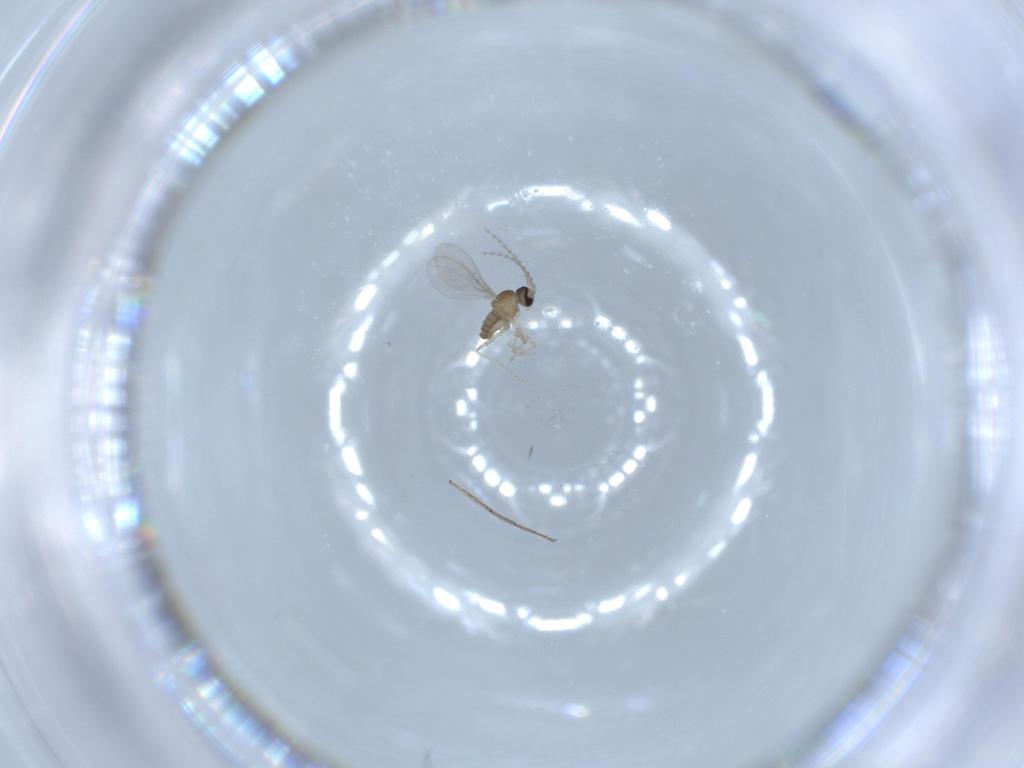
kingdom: Animalia
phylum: Arthropoda
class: Insecta
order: Diptera
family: Cecidomyiidae
